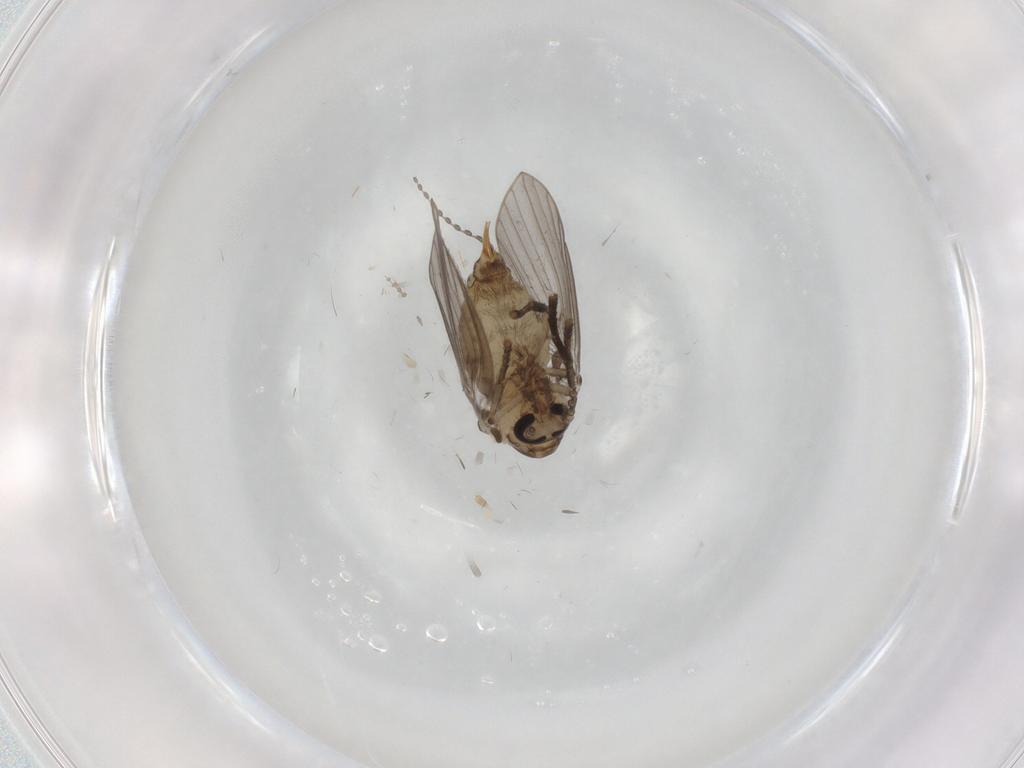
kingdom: Animalia
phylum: Arthropoda
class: Insecta
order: Diptera
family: Psychodidae
